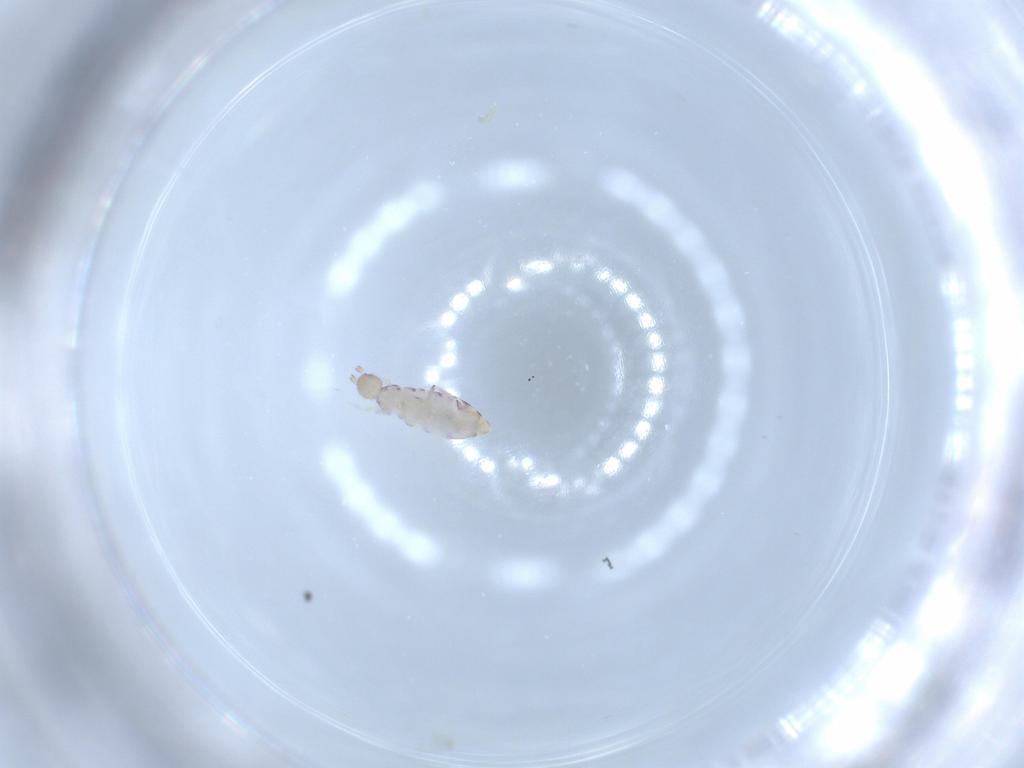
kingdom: Animalia
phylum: Arthropoda
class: Collembola
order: Entomobryomorpha
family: Entomobryidae
